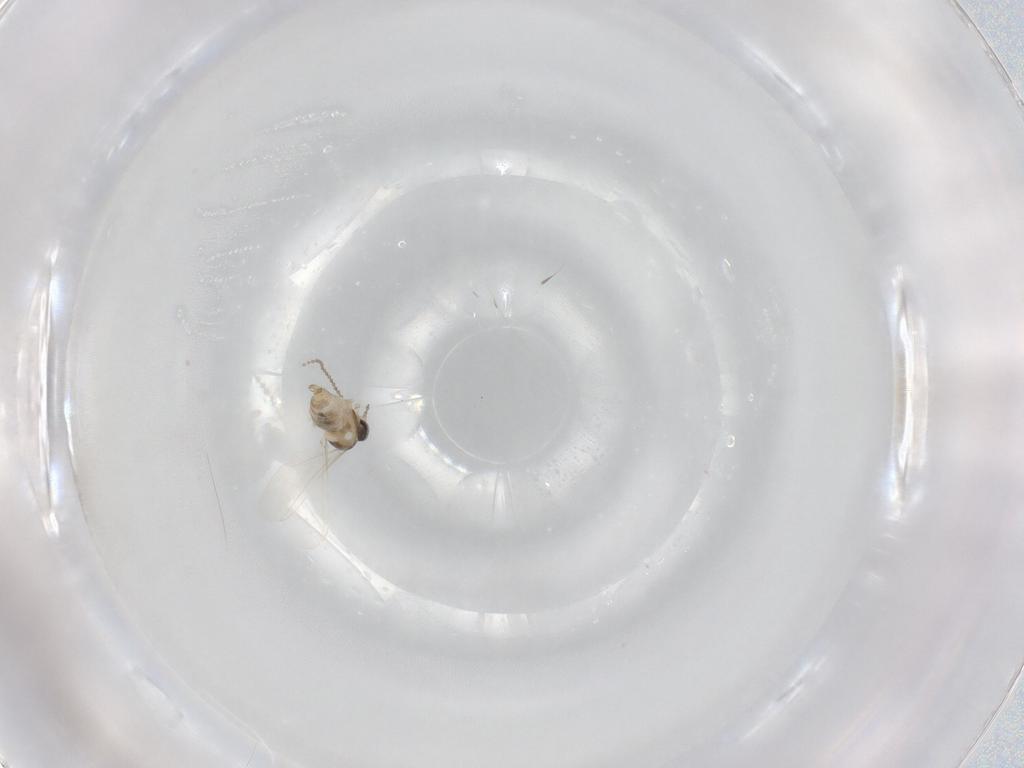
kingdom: Animalia
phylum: Arthropoda
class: Insecta
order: Diptera
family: Cecidomyiidae
